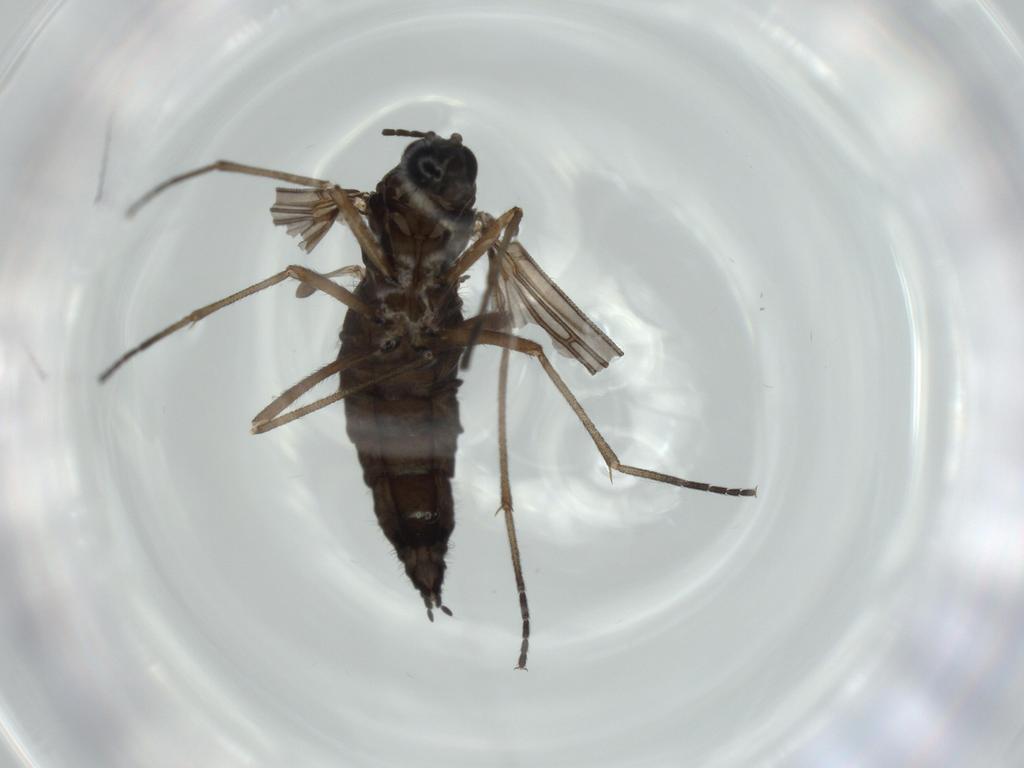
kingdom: Animalia
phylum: Arthropoda
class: Insecta
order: Diptera
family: Sciaridae
